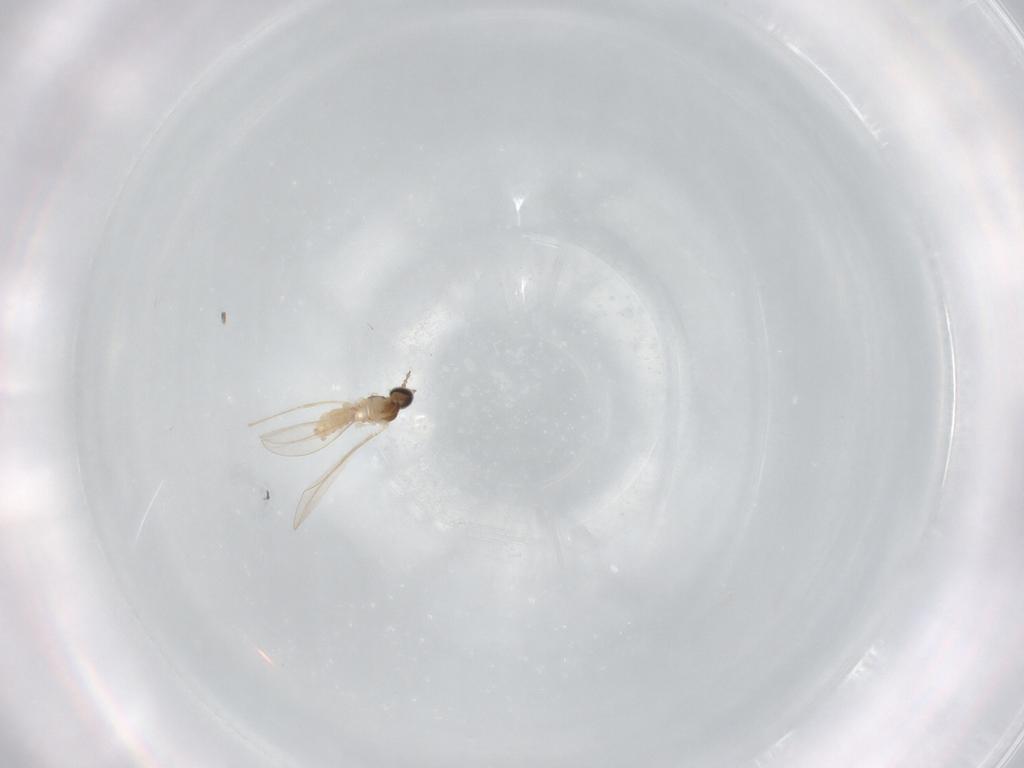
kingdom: Animalia
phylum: Arthropoda
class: Insecta
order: Diptera
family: Cecidomyiidae
